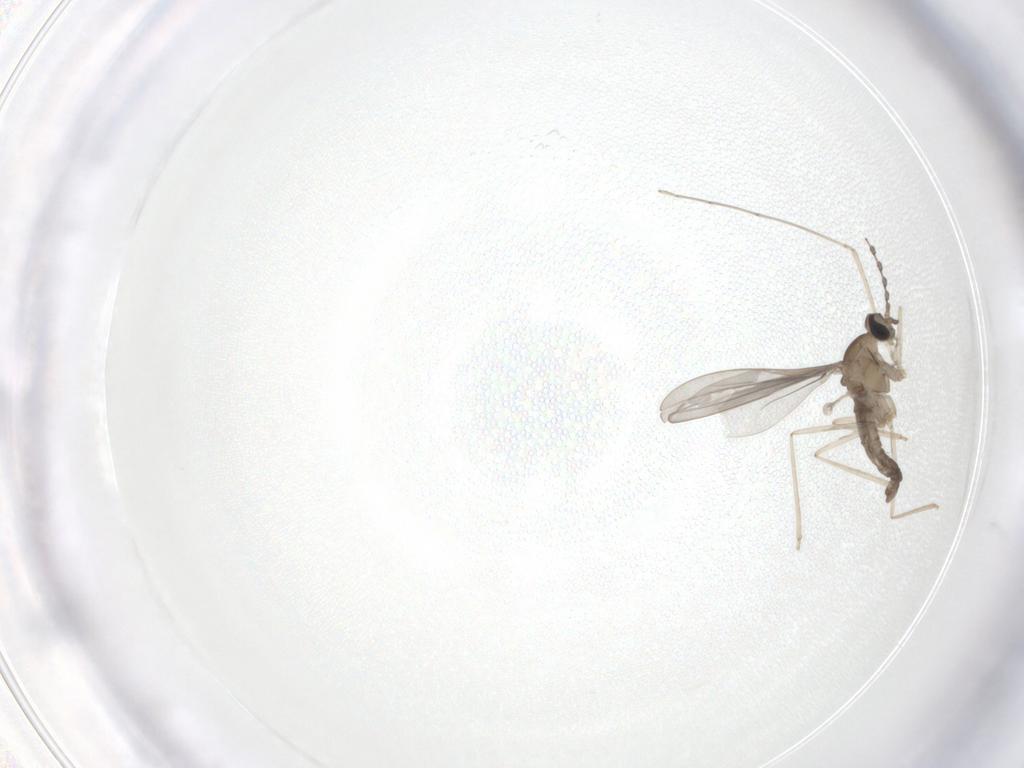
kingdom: Animalia
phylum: Arthropoda
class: Insecta
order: Diptera
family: Cecidomyiidae
